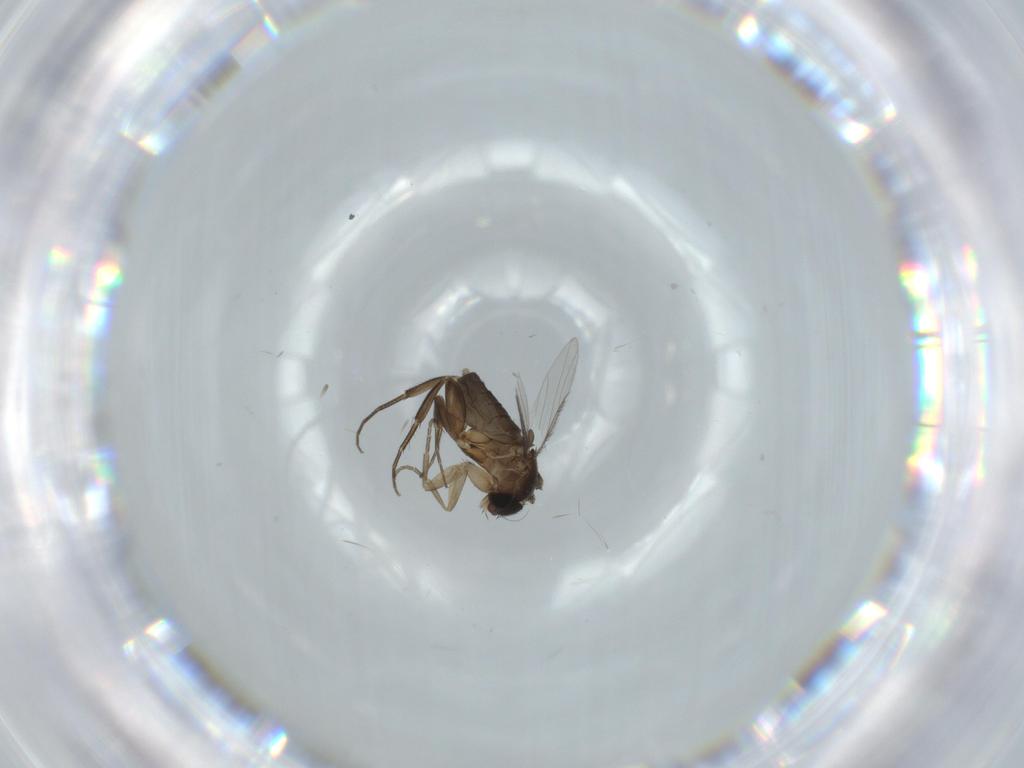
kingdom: Animalia
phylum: Arthropoda
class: Insecta
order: Diptera
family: Phoridae
